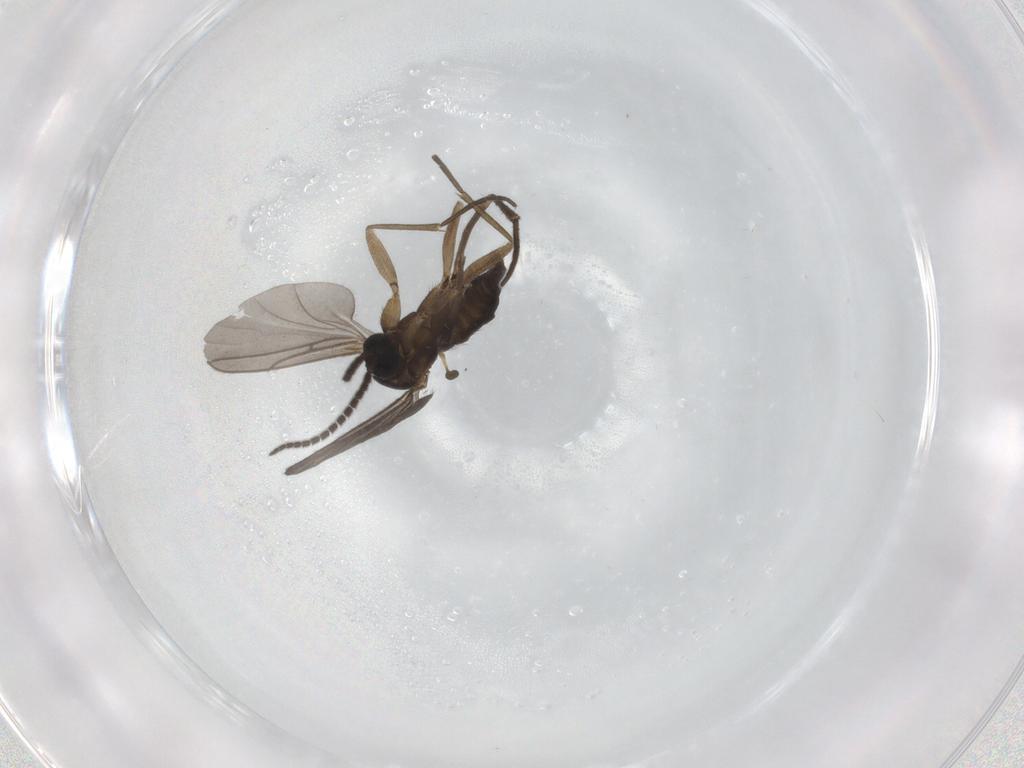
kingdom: Animalia
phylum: Arthropoda
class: Insecta
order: Diptera
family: Sciaridae
